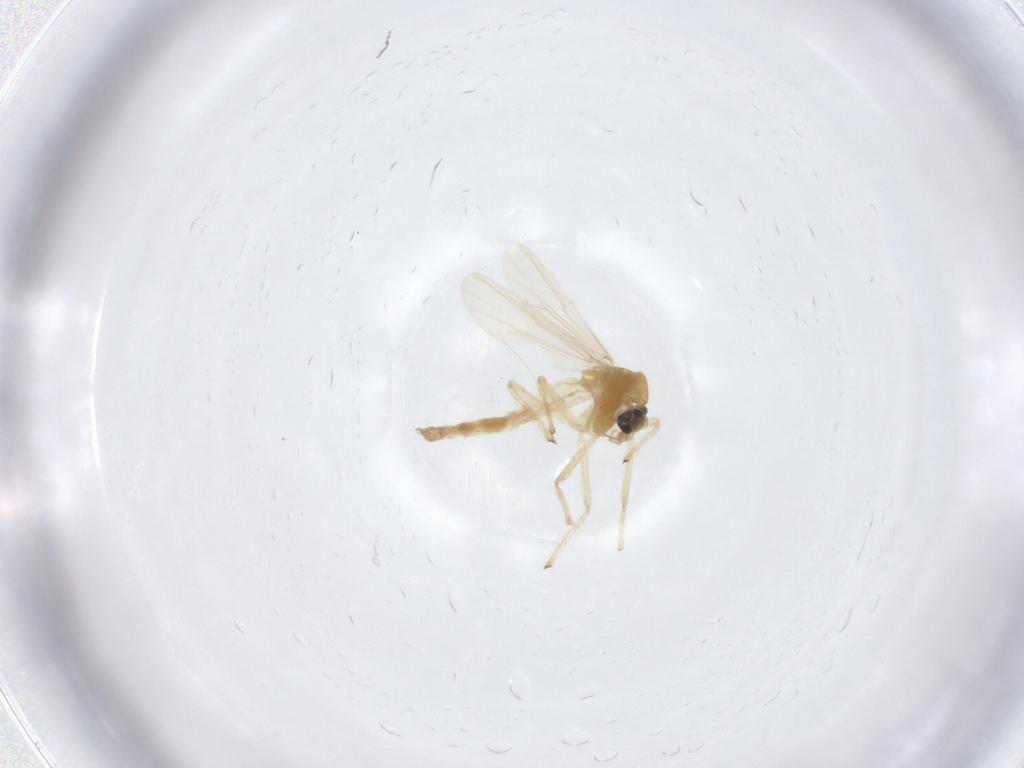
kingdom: Animalia
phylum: Arthropoda
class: Insecta
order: Diptera
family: Chironomidae
